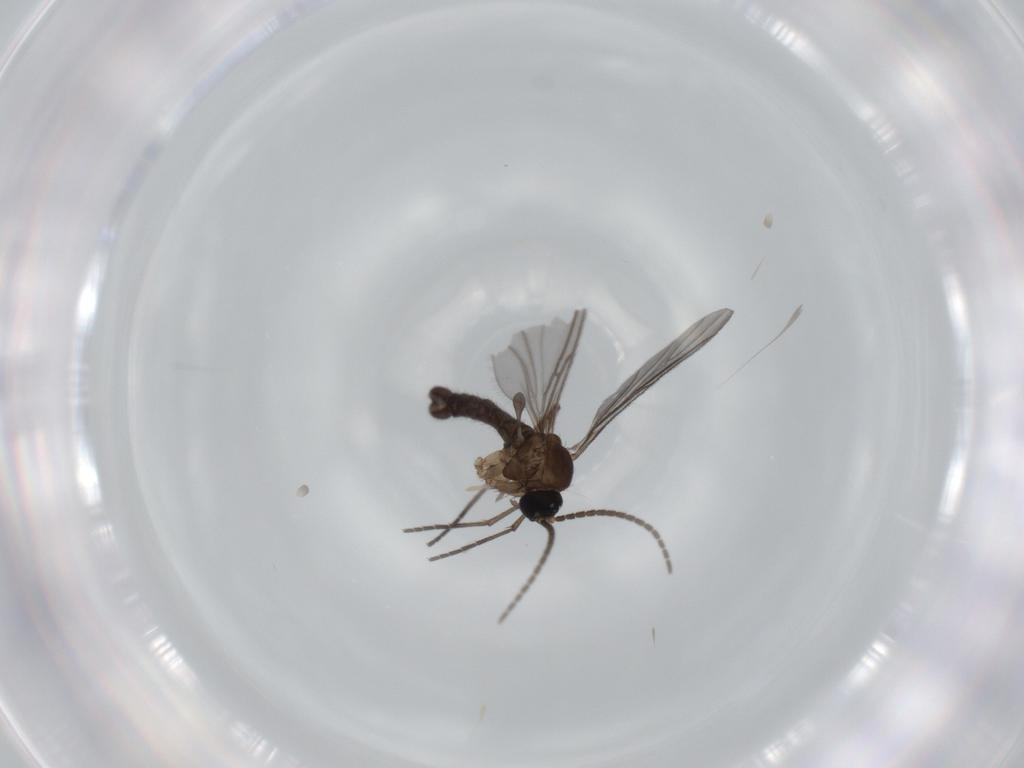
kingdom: Animalia
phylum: Arthropoda
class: Insecta
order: Diptera
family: Sciaridae
